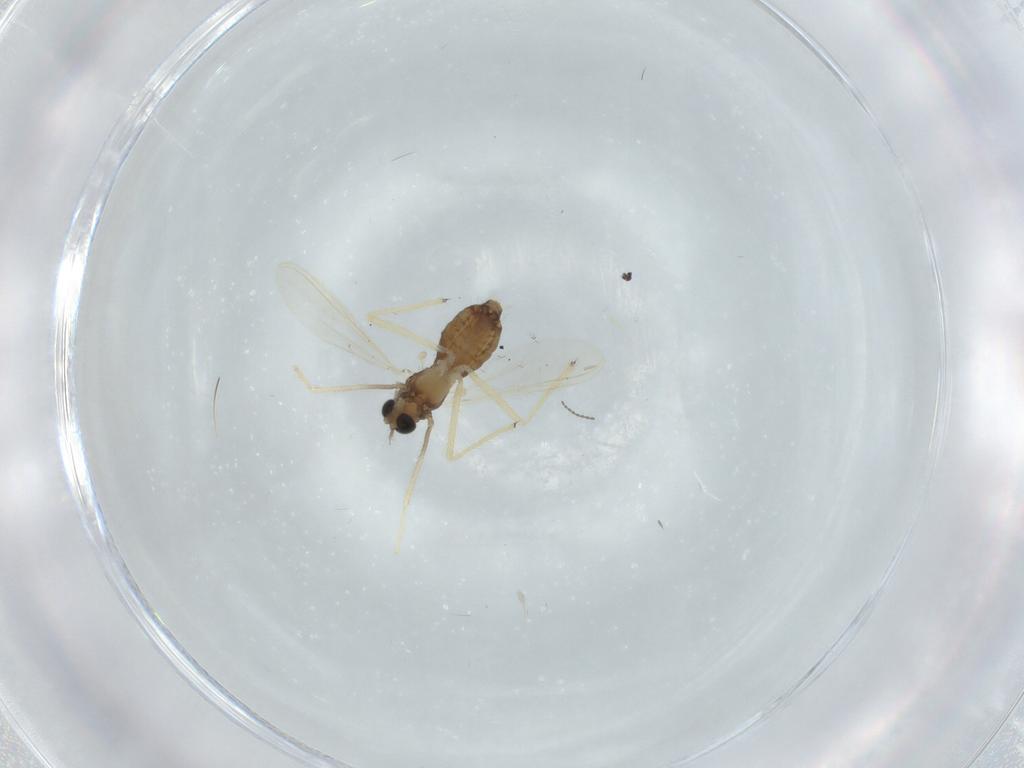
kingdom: Animalia
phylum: Arthropoda
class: Insecta
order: Diptera
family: Chironomidae
